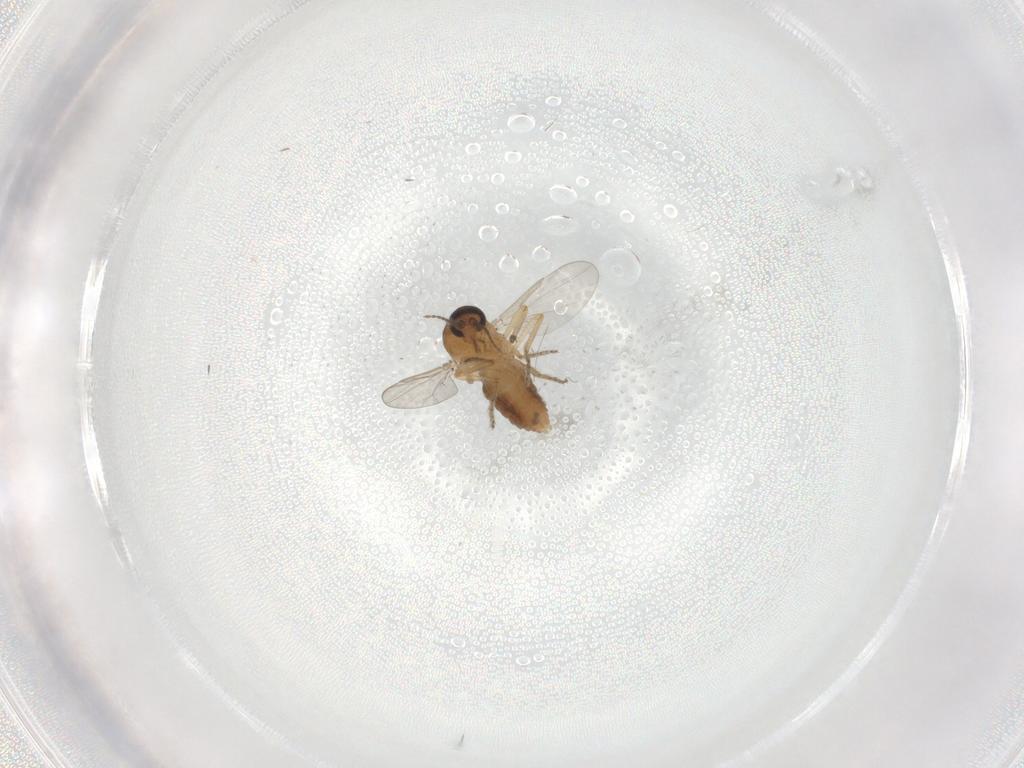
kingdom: Animalia
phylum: Arthropoda
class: Insecta
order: Diptera
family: Ceratopogonidae
